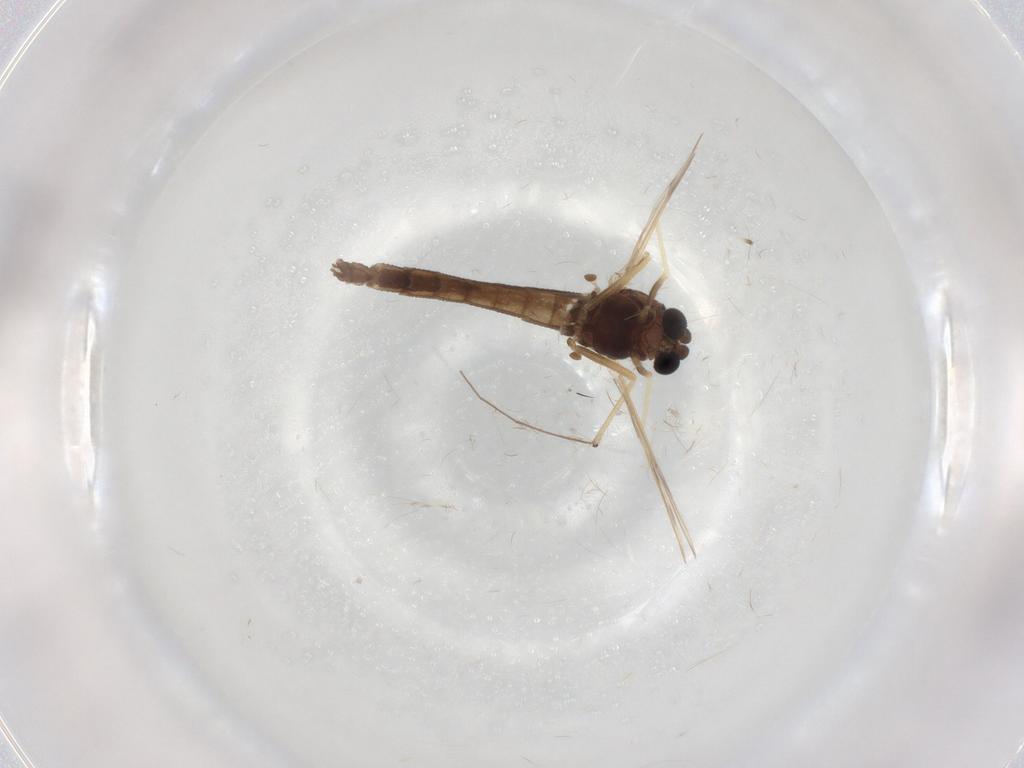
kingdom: Animalia
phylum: Arthropoda
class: Insecta
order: Diptera
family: Chironomidae
